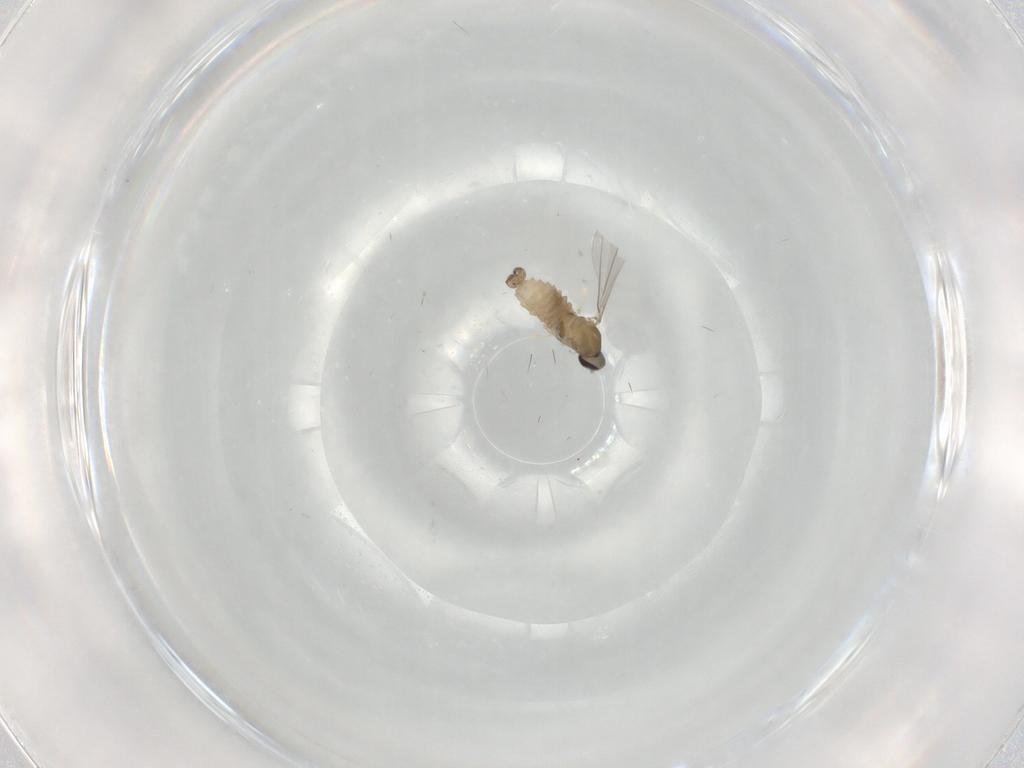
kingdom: Animalia
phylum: Arthropoda
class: Insecta
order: Diptera
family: Cecidomyiidae
